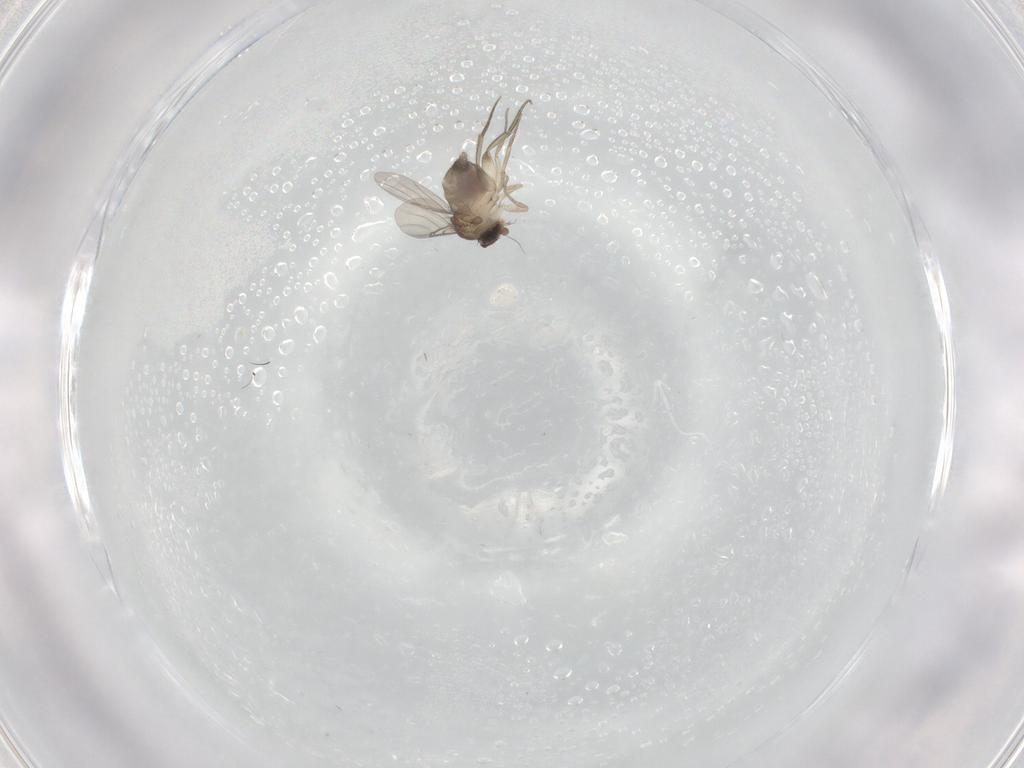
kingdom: Animalia
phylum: Arthropoda
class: Insecta
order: Diptera
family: Phoridae
